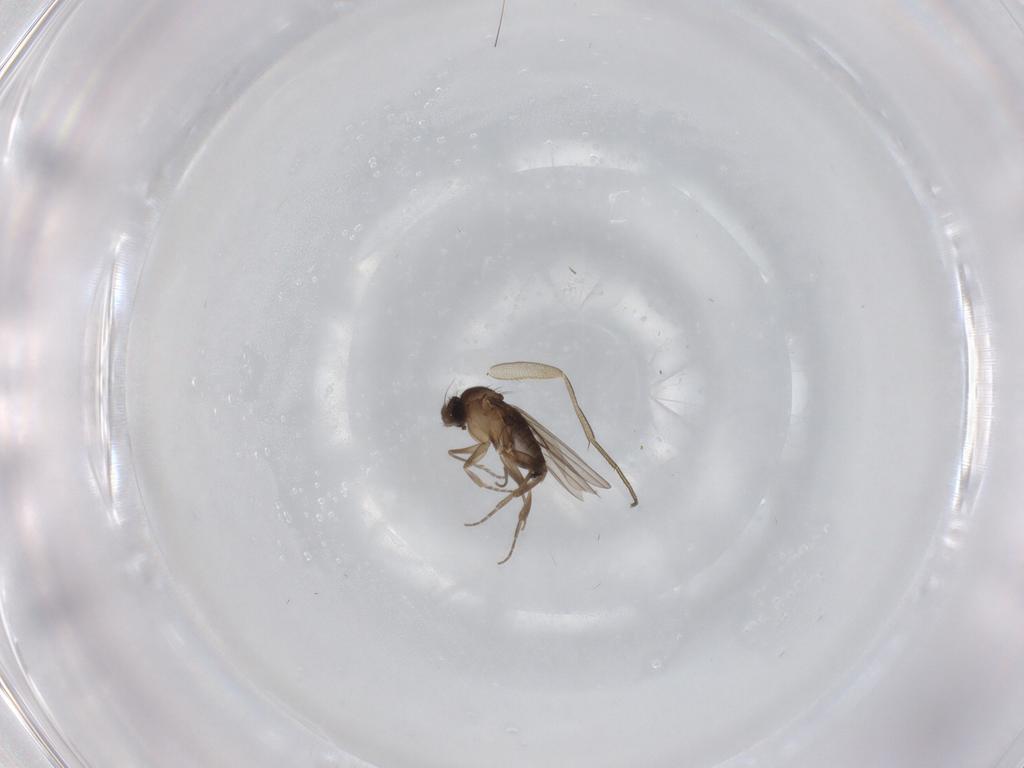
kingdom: Animalia
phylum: Arthropoda
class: Insecta
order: Diptera
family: Phoridae
